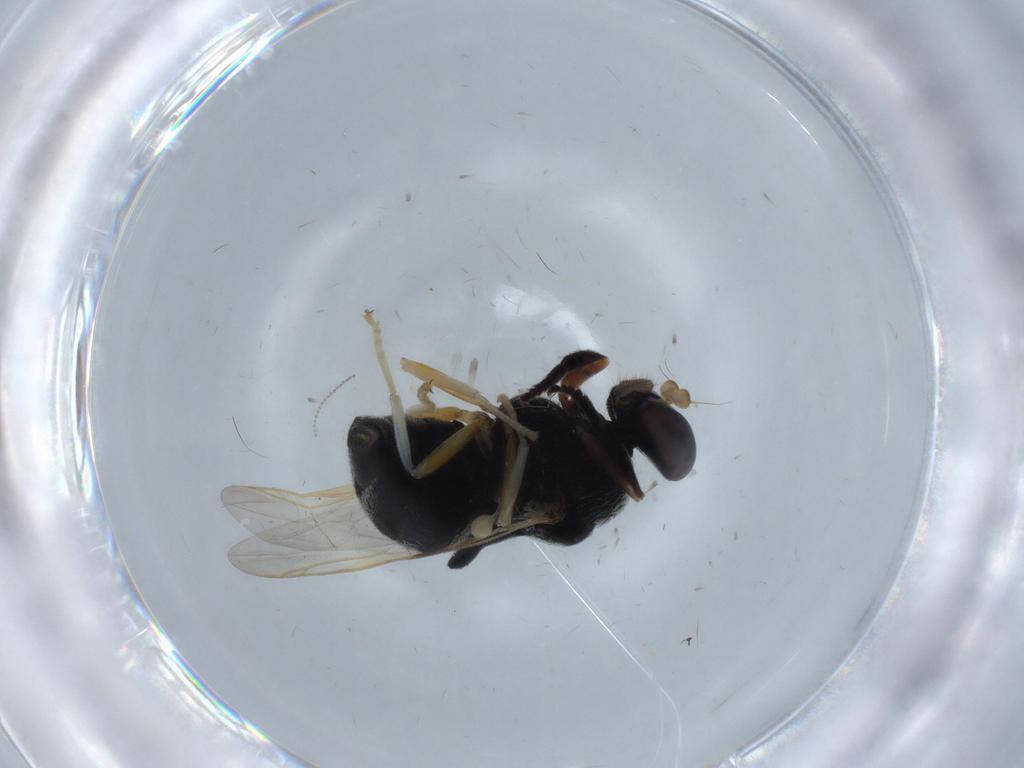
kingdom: Animalia
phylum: Arthropoda
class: Insecta
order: Diptera
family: Stratiomyidae
